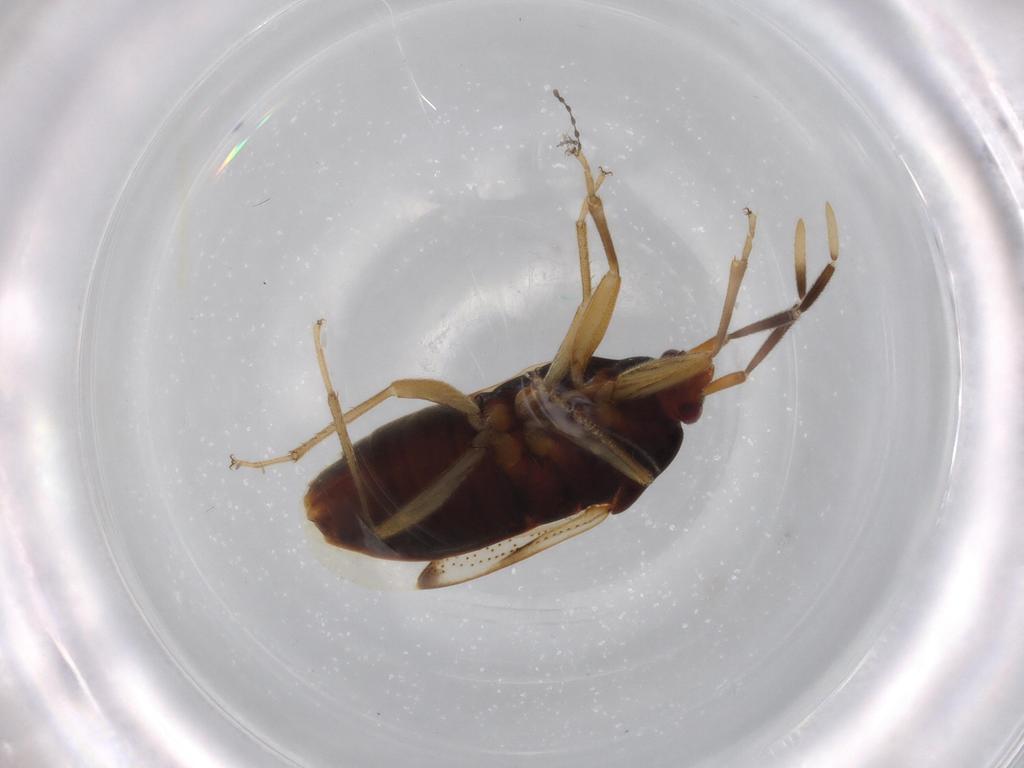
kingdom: Animalia
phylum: Arthropoda
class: Insecta
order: Hemiptera
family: Rhyparochromidae
